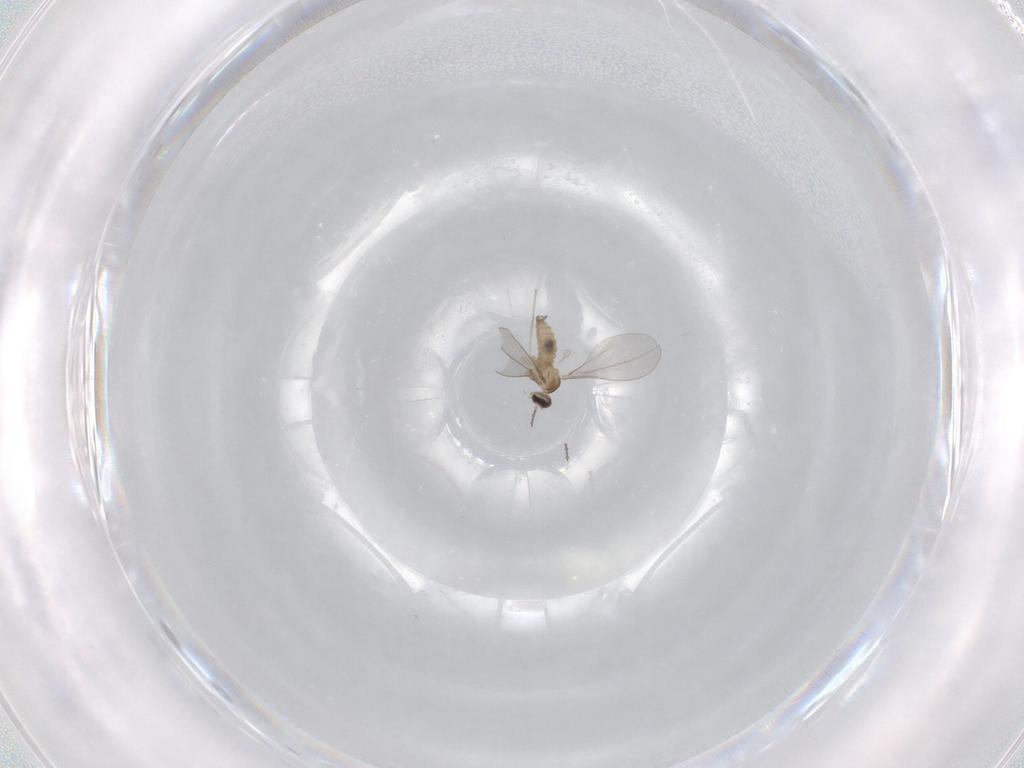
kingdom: Animalia
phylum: Arthropoda
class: Insecta
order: Diptera
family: Cecidomyiidae
